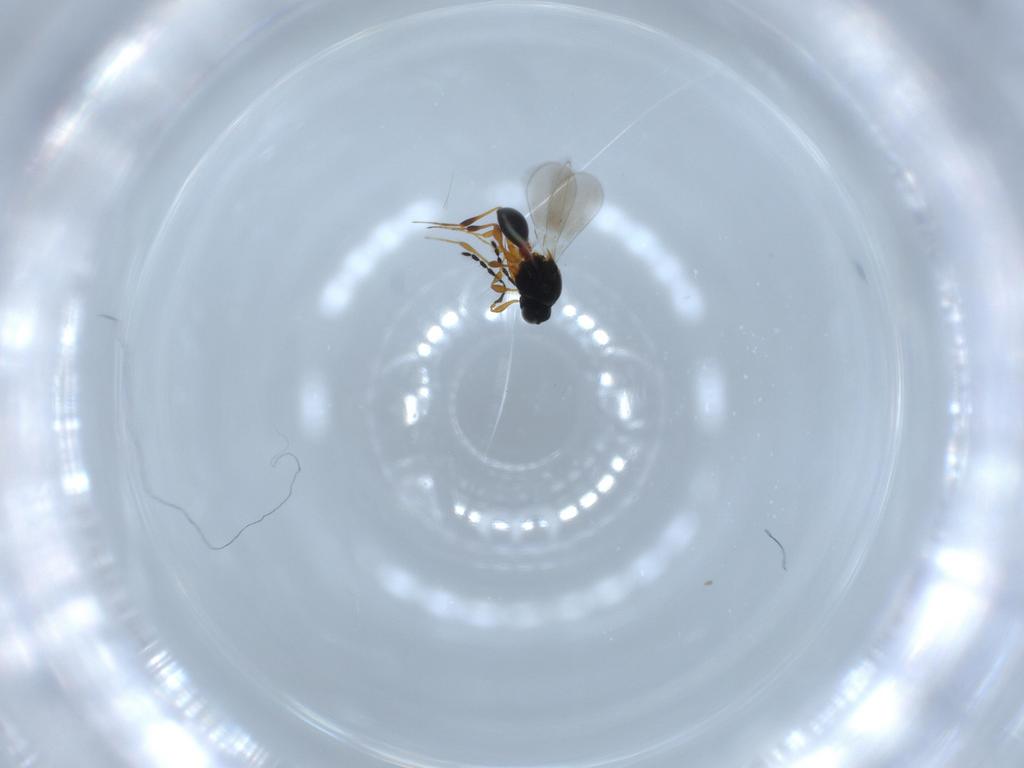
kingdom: Animalia
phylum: Arthropoda
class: Insecta
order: Hymenoptera
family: Platygastridae
